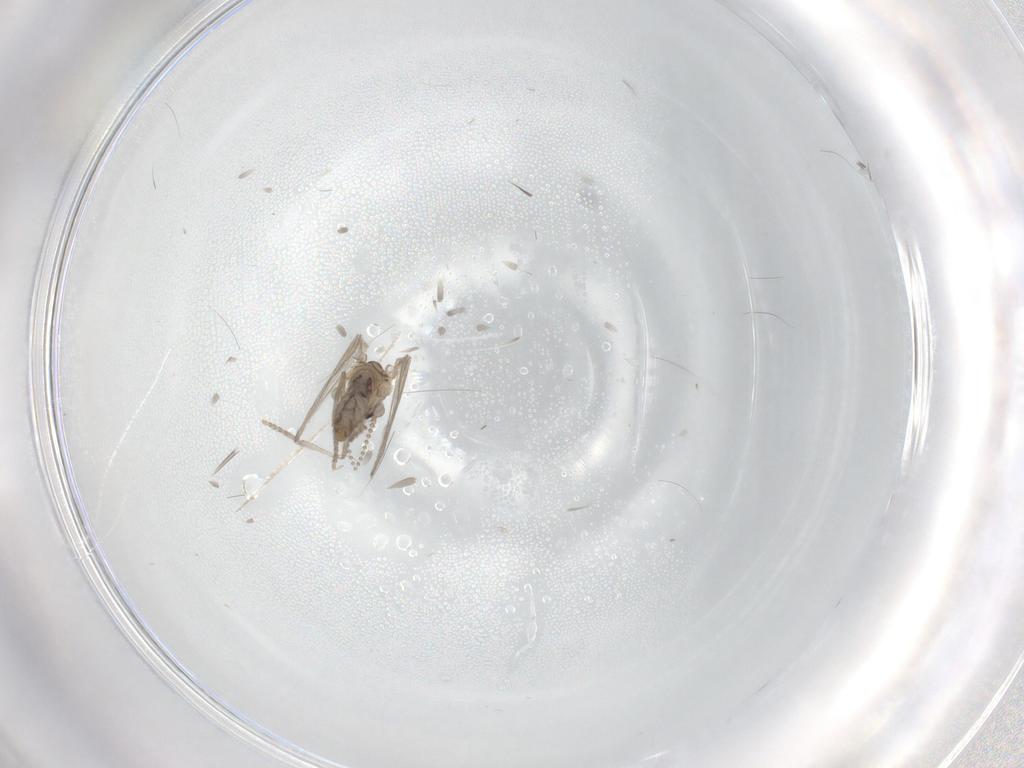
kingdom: Animalia
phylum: Arthropoda
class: Insecta
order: Diptera
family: Psychodidae
